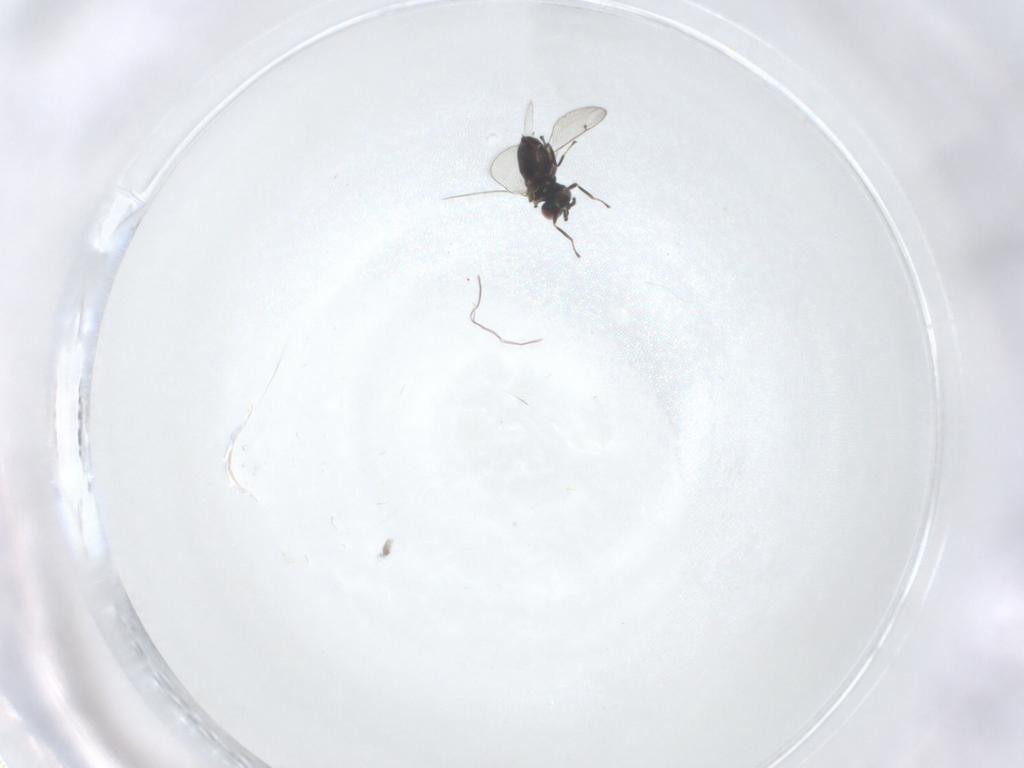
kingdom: Animalia
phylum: Arthropoda
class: Insecta
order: Hymenoptera
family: Eulophidae
